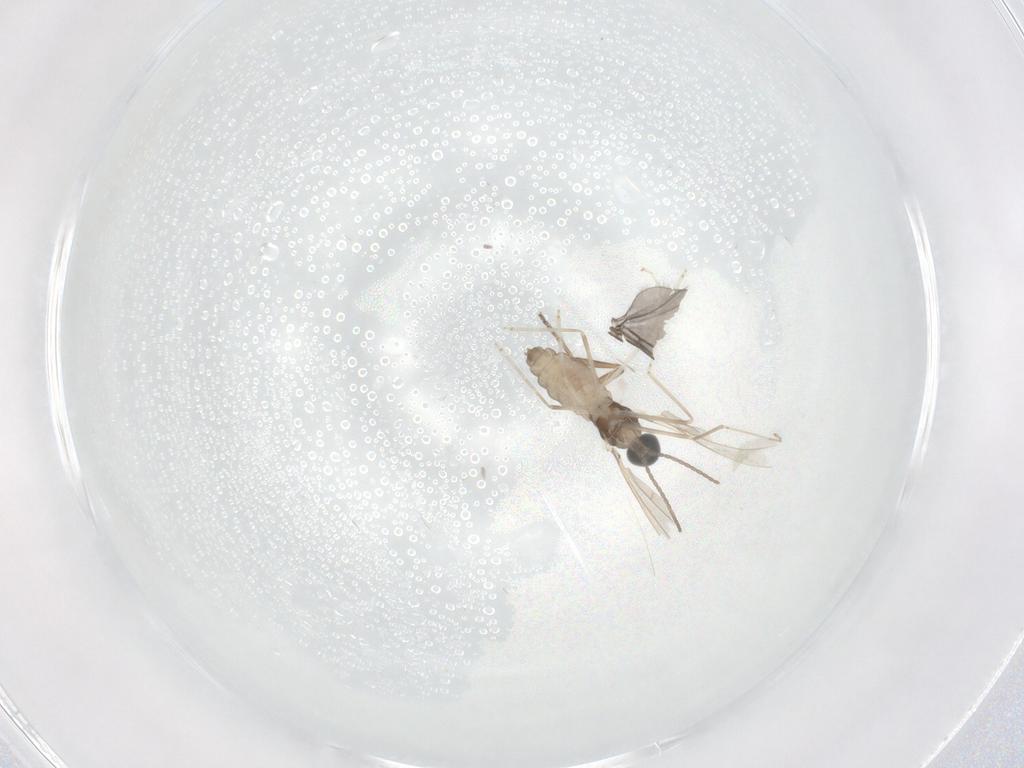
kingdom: Animalia
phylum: Arthropoda
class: Insecta
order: Diptera
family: Cecidomyiidae
